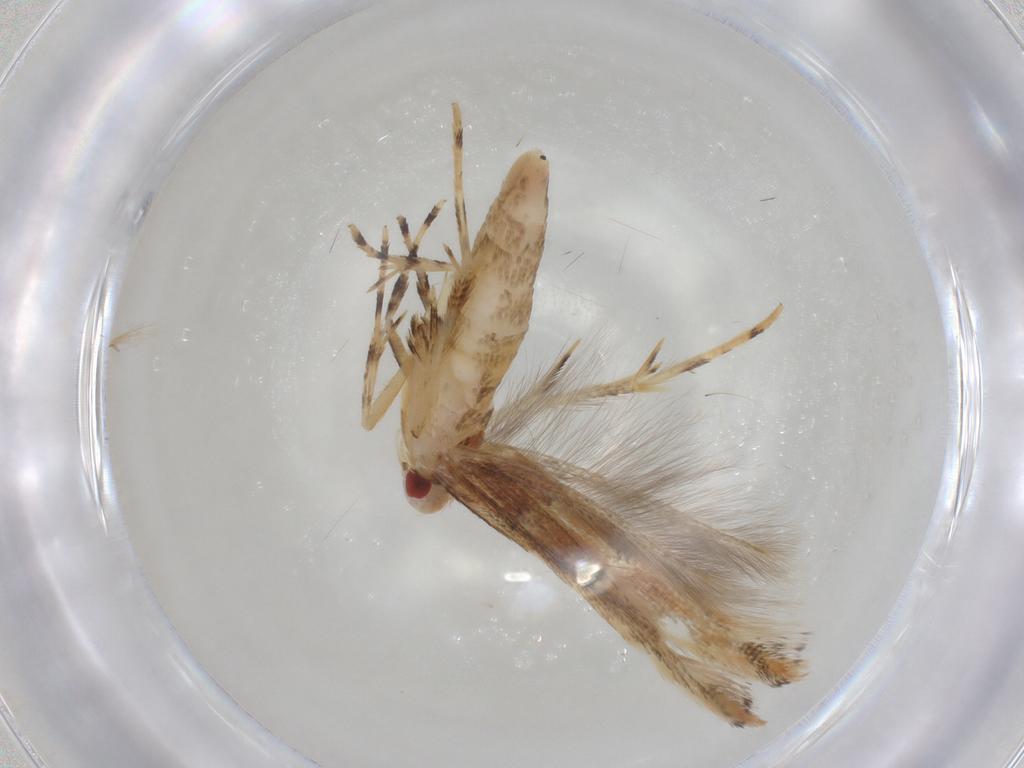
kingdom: Animalia
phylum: Arthropoda
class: Insecta
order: Lepidoptera
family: Cosmopterigidae
